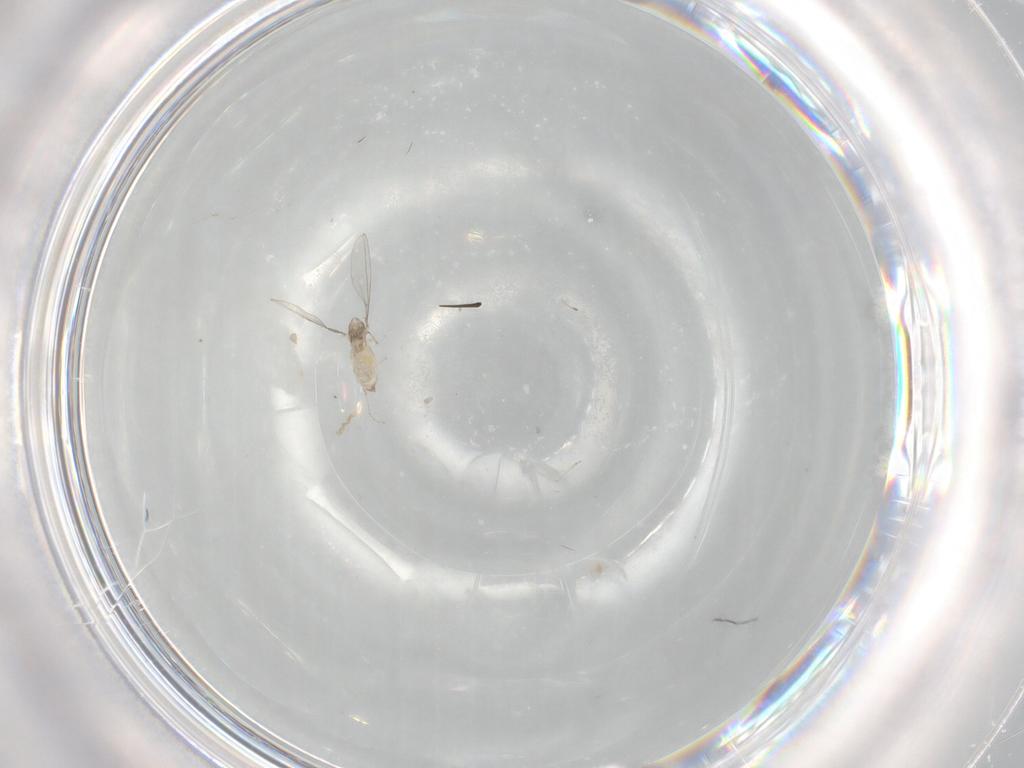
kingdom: Animalia
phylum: Arthropoda
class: Insecta
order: Diptera
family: Cecidomyiidae
